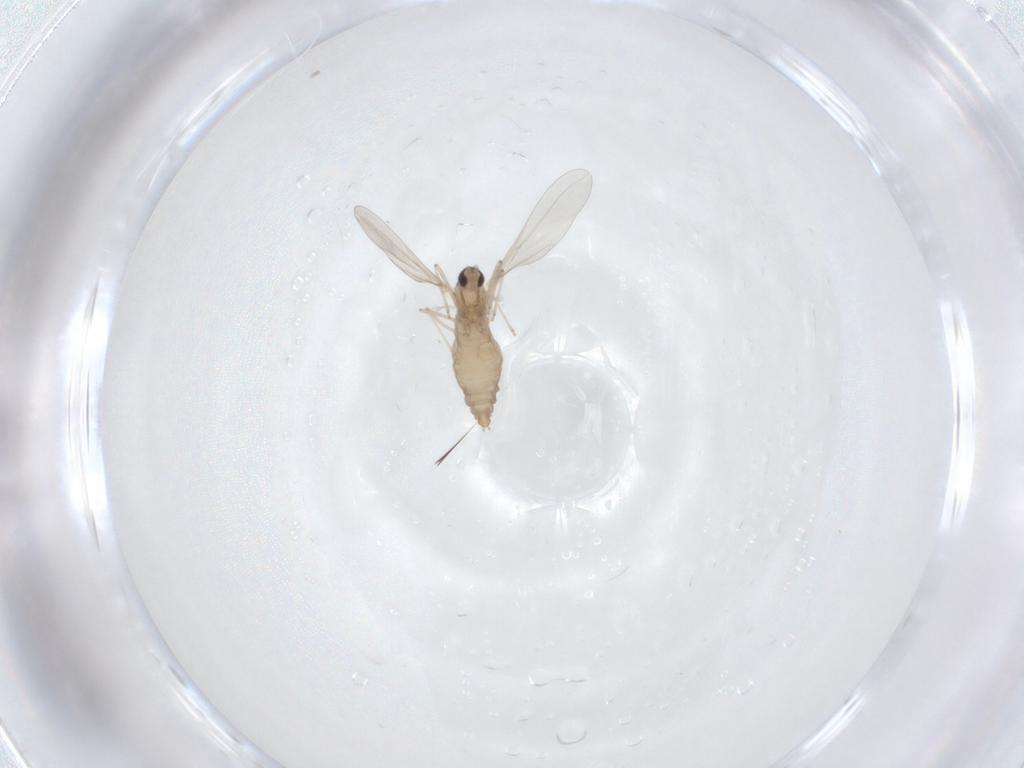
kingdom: Animalia
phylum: Arthropoda
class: Insecta
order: Diptera
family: Cecidomyiidae
